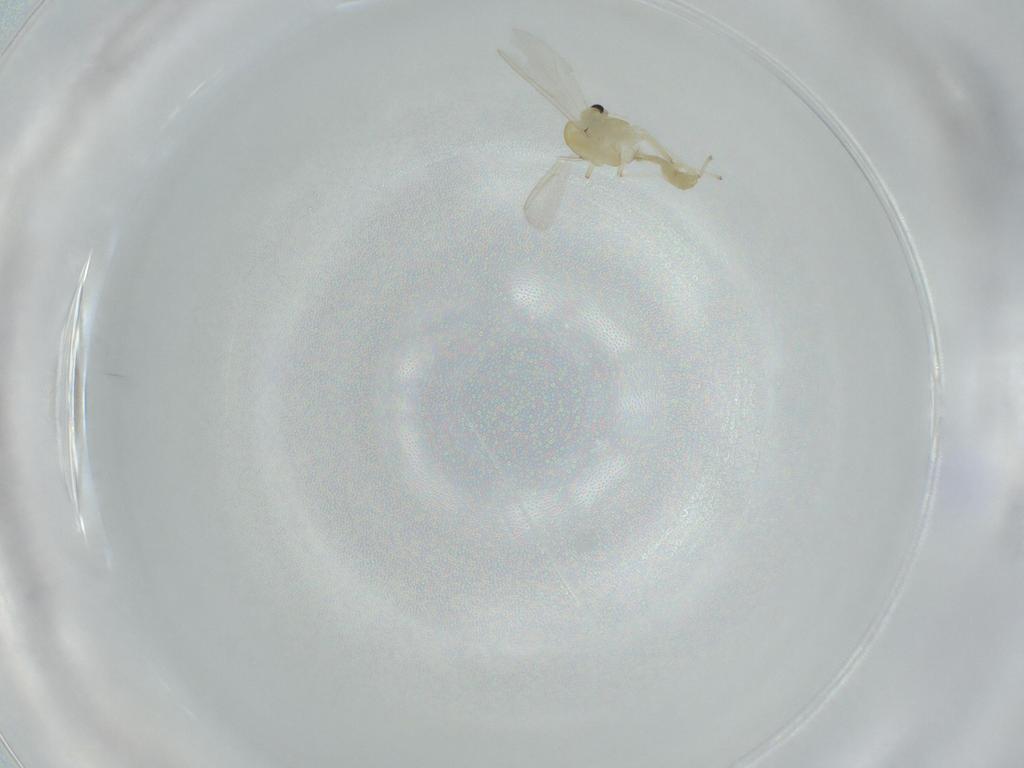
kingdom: Animalia
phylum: Arthropoda
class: Insecta
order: Diptera
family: Chironomidae
